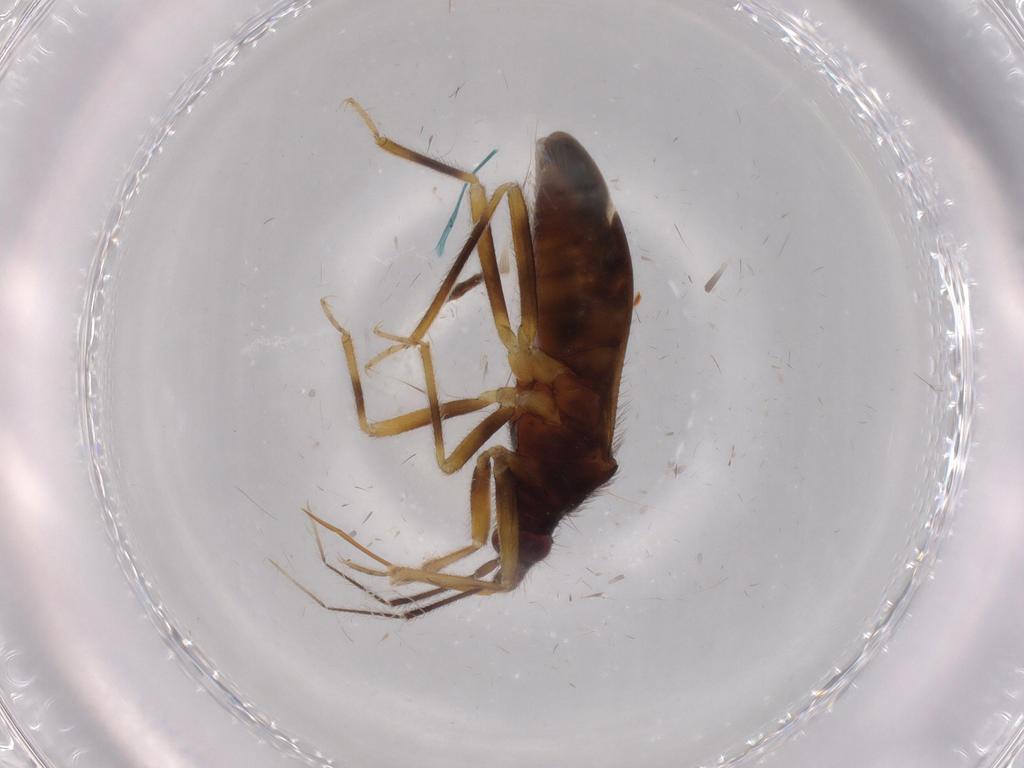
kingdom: Animalia
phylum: Arthropoda
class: Insecta
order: Hemiptera
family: Anthocoridae
